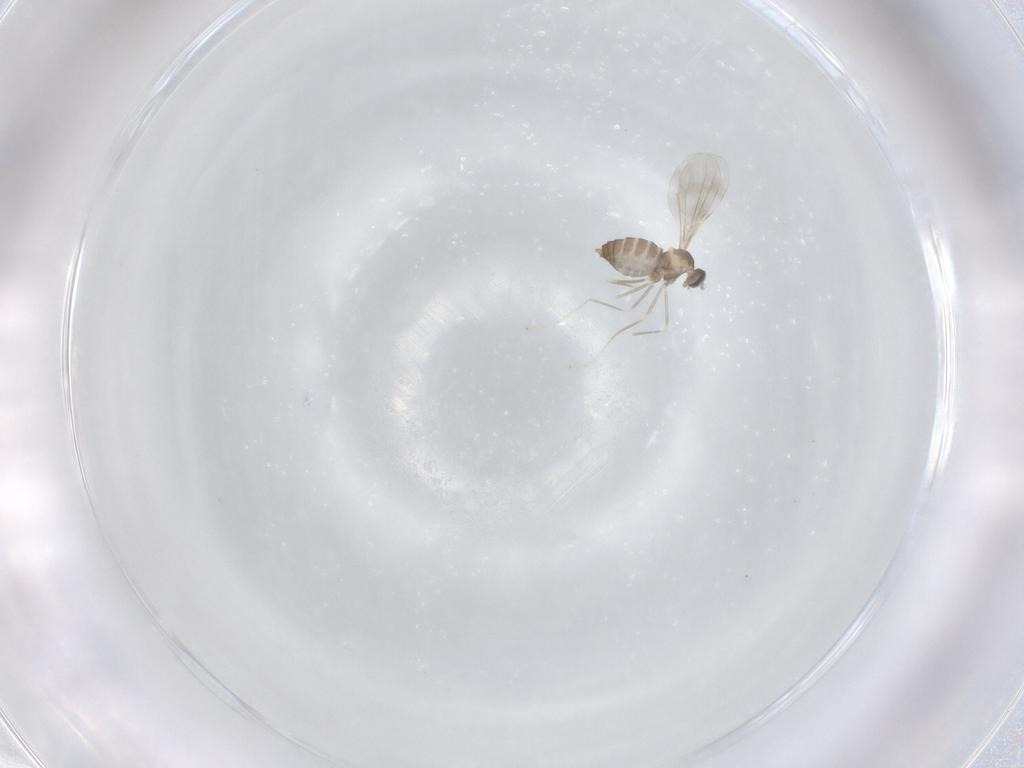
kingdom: Animalia
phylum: Arthropoda
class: Insecta
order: Diptera
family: Cecidomyiidae
